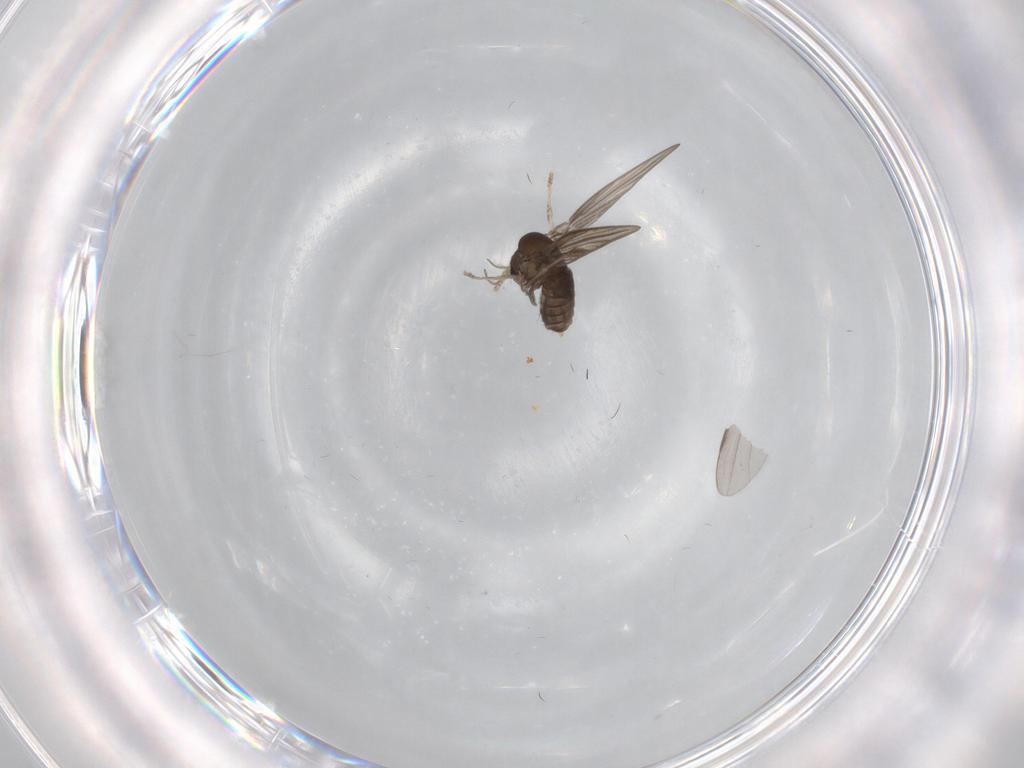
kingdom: Animalia
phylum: Arthropoda
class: Insecta
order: Diptera
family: Psychodidae
